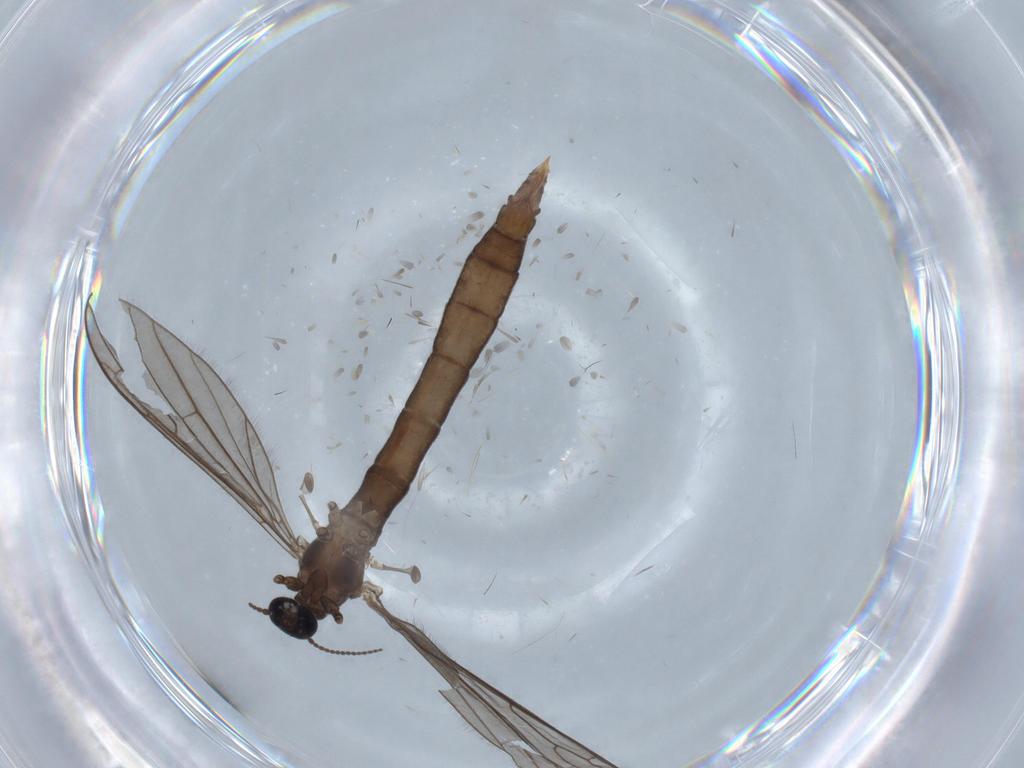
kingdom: Animalia
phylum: Arthropoda
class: Insecta
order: Diptera
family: Limoniidae
